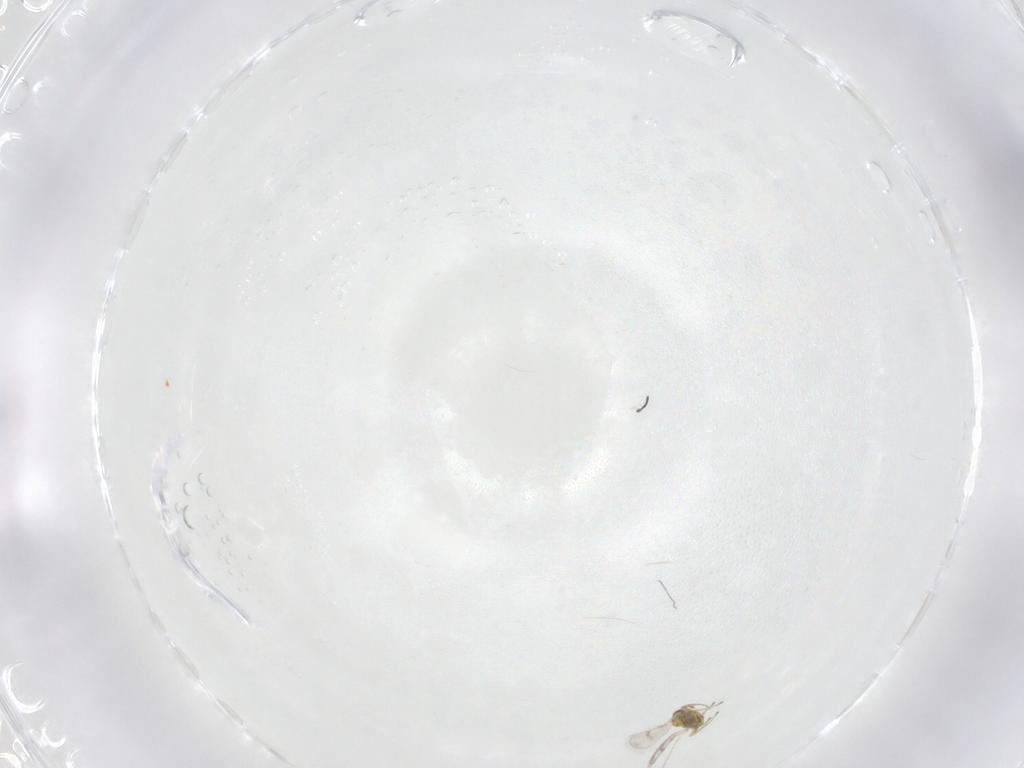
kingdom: Animalia
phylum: Arthropoda
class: Insecta
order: Hymenoptera
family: Eulophidae
